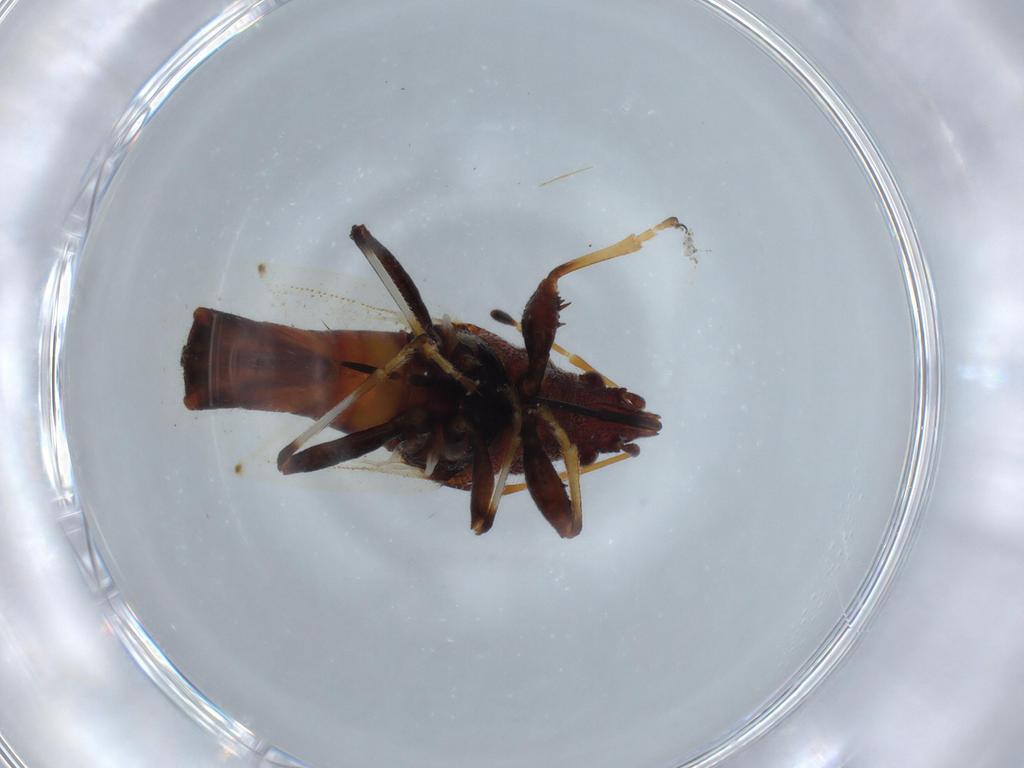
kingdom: Animalia
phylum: Arthropoda
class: Insecta
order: Hemiptera
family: Oxycarenidae
